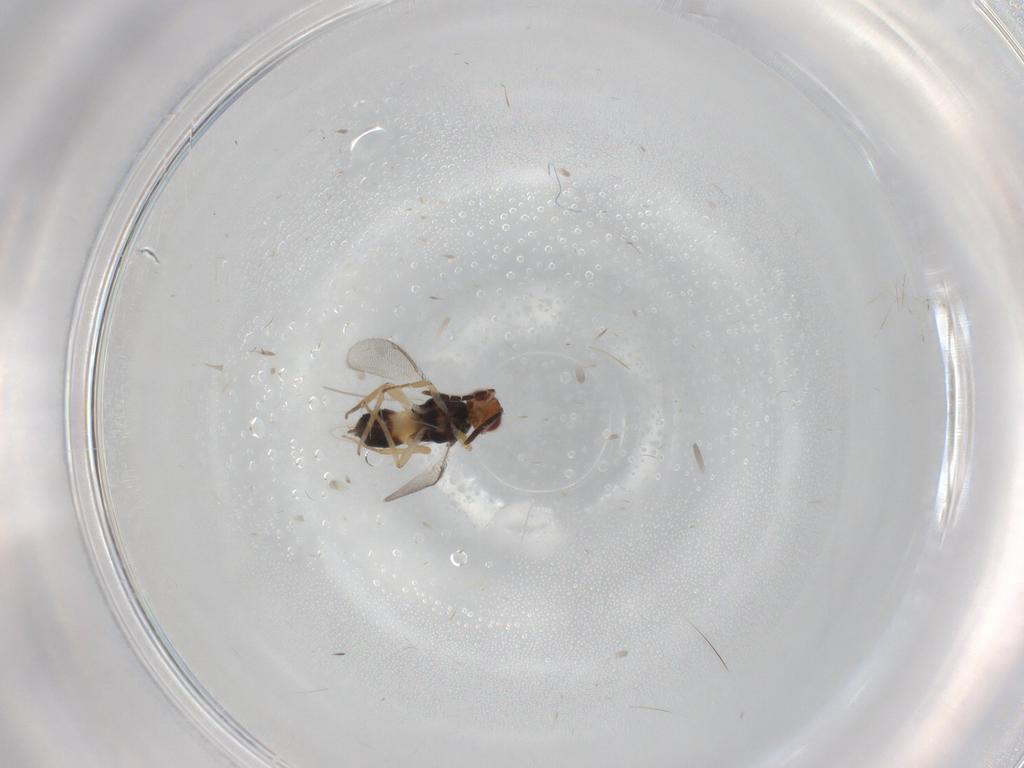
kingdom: Animalia
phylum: Arthropoda
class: Insecta
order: Hymenoptera
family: Aphelinidae
